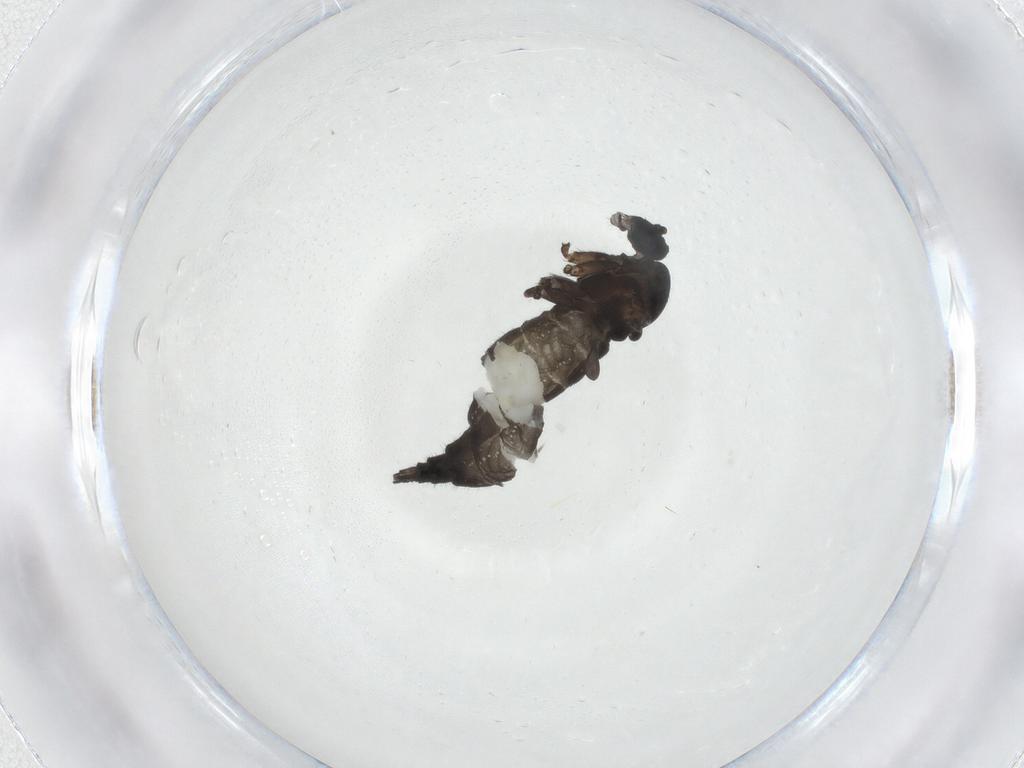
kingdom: Animalia
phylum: Arthropoda
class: Insecta
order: Diptera
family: Sciaridae
